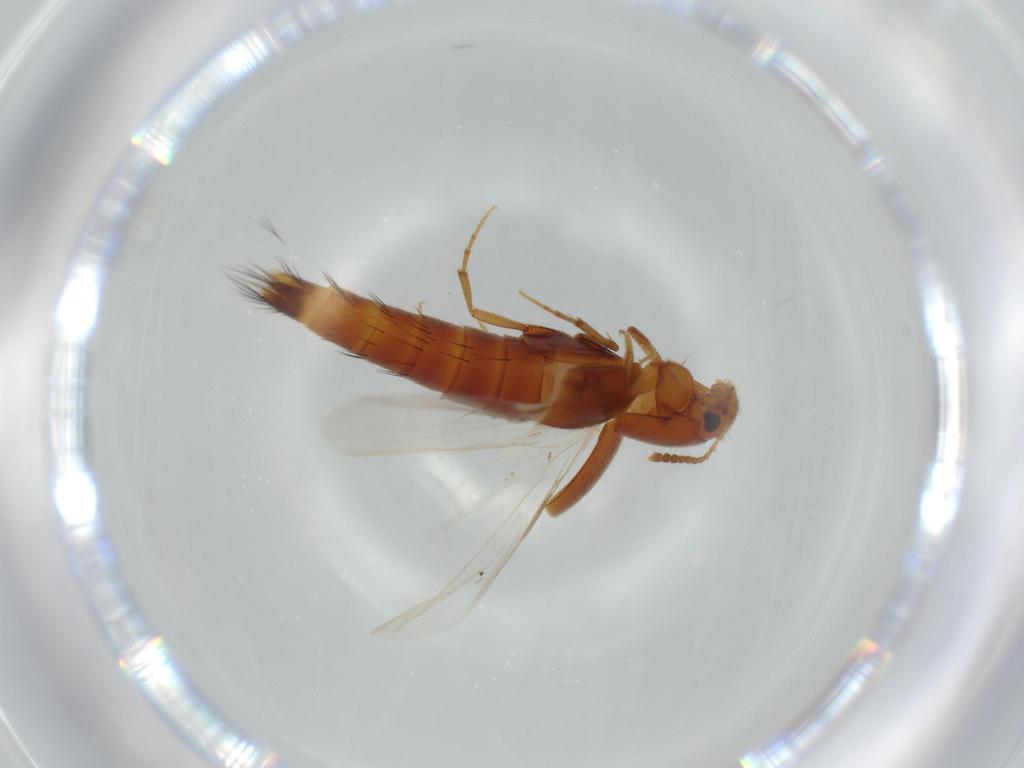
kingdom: Animalia
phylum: Arthropoda
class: Insecta
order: Coleoptera
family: Staphylinidae
